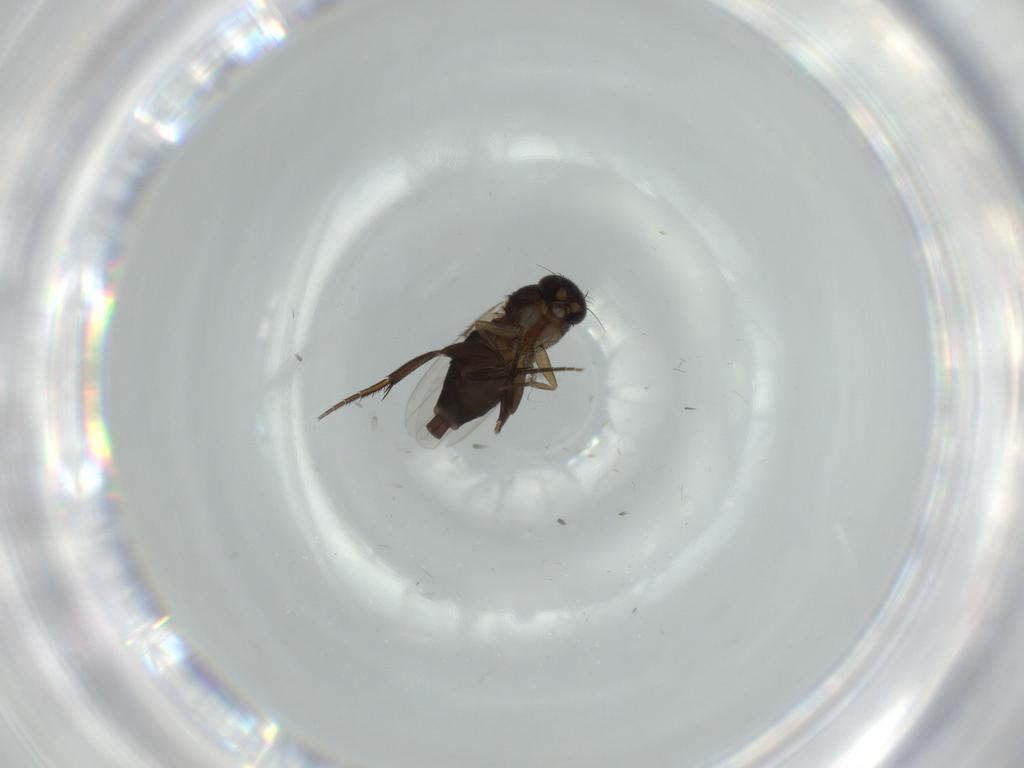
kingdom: Animalia
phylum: Arthropoda
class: Insecta
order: Diptera
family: Phoridae
